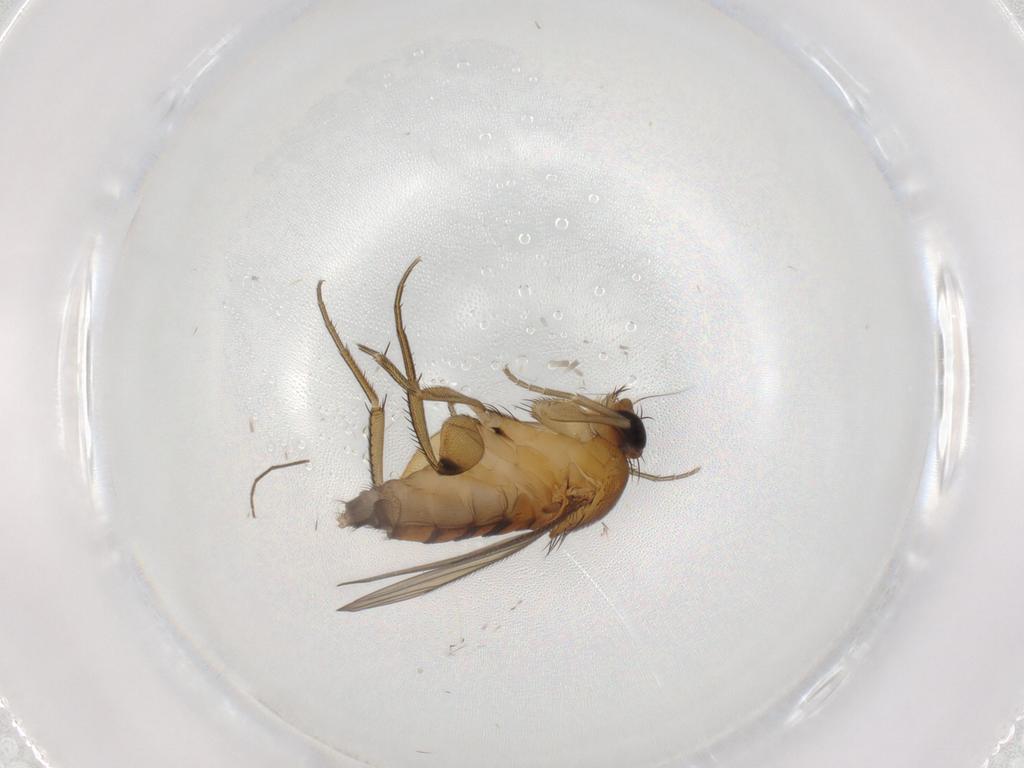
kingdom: Animalia
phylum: Arthropoda
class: Insecta
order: Diptera
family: Phoridae
